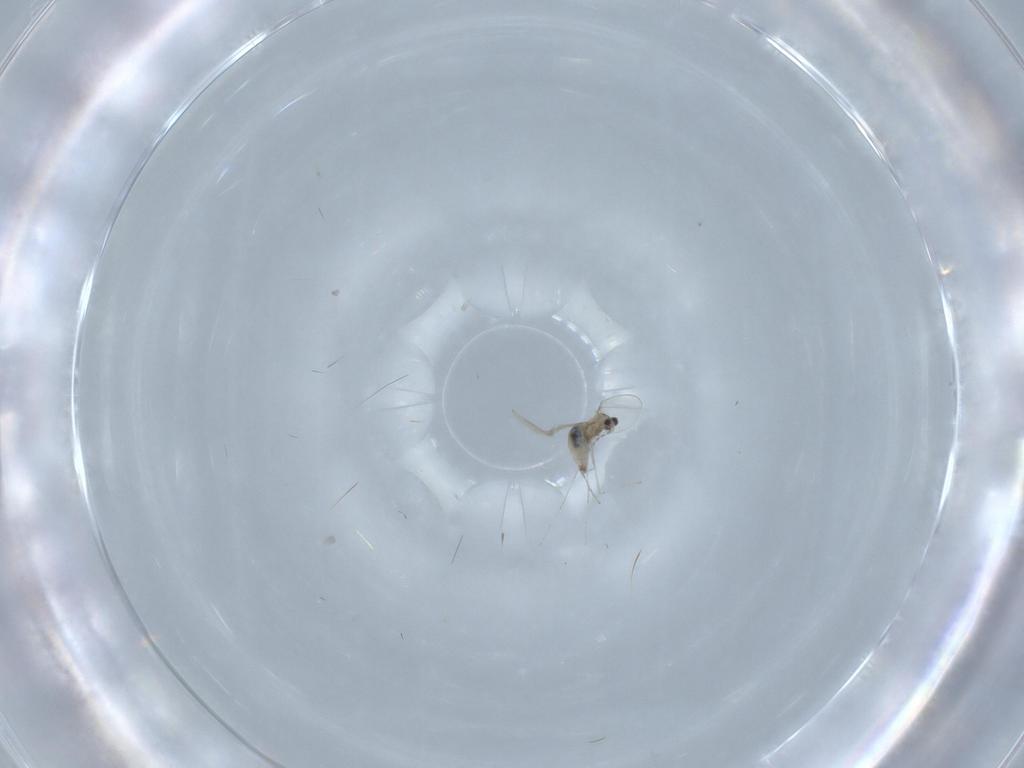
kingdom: Animalia
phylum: Arthropoda
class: Insecta
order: Diptera
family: Cecidomyiidae
